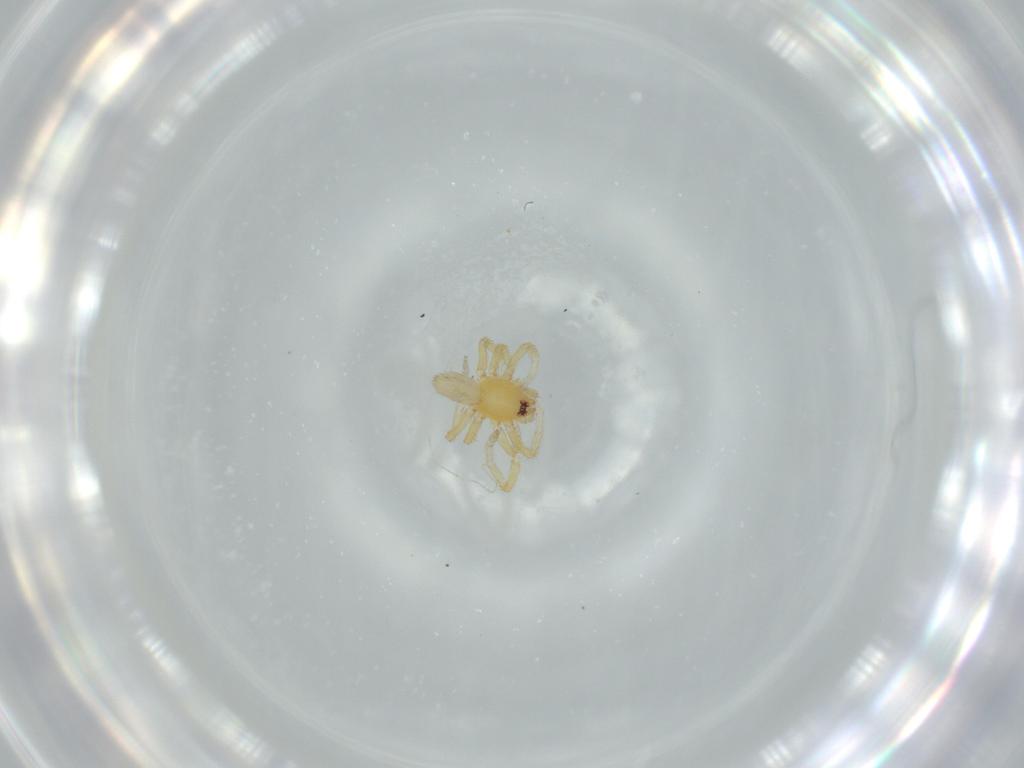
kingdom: Animalia
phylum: Arthropoda
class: Arachnida
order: Araneae
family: Oonopidae
